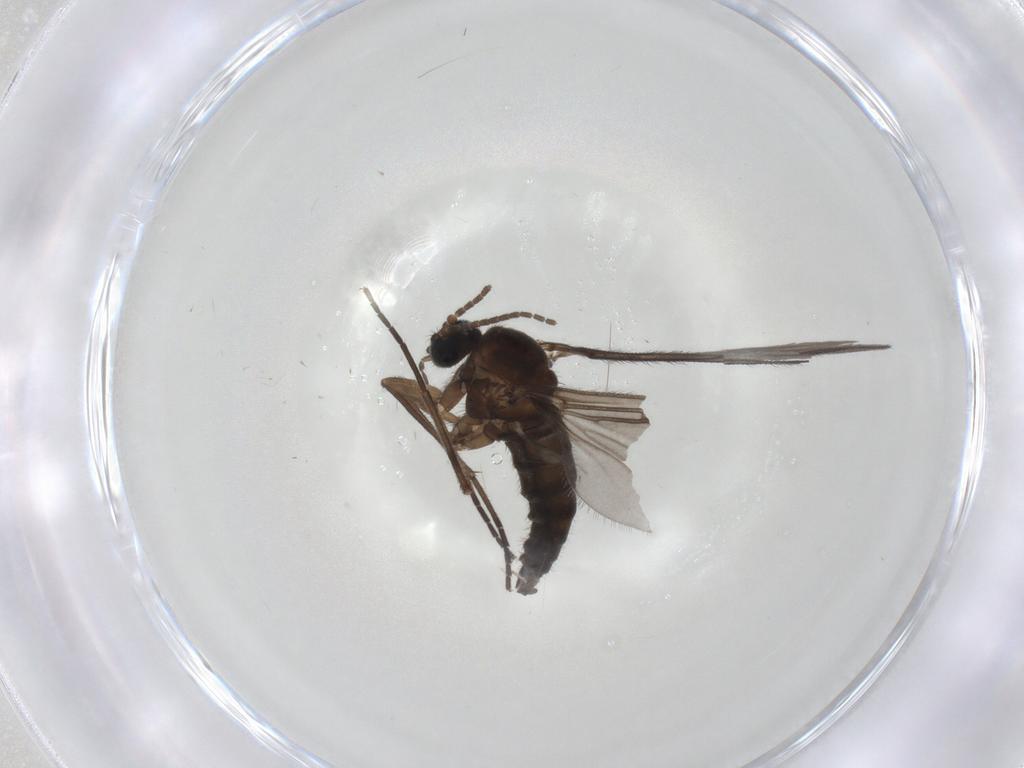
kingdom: Animalia
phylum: Arthropoda
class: Insecta
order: Diptera
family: Sciaridae
